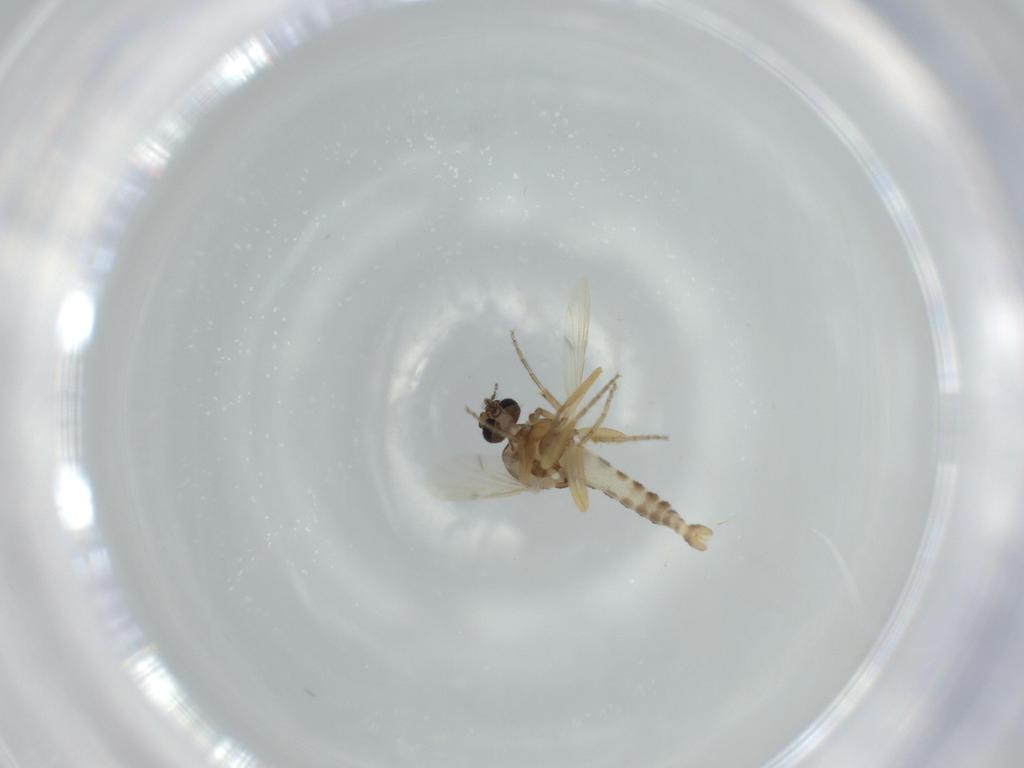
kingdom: Animalia
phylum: Arthropoda
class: Insecta
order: Diptera
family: Ceratopogonidae
